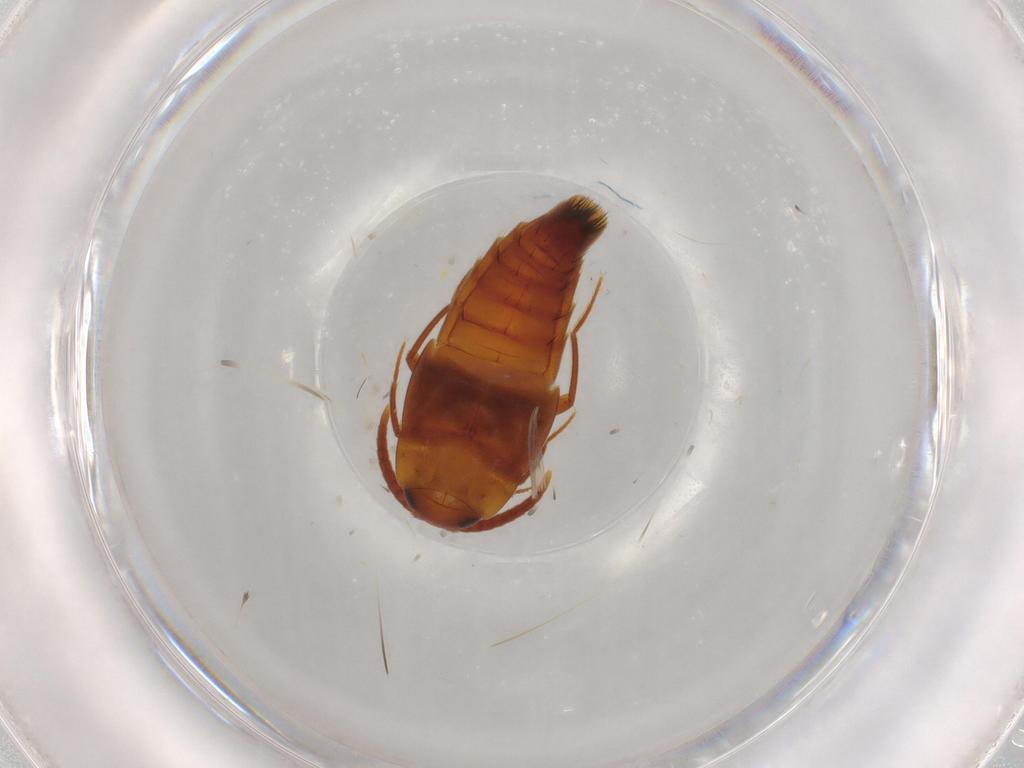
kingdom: Animalia
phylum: Arthropoda
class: Insecta
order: Coleoptera
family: Staphylinidae
